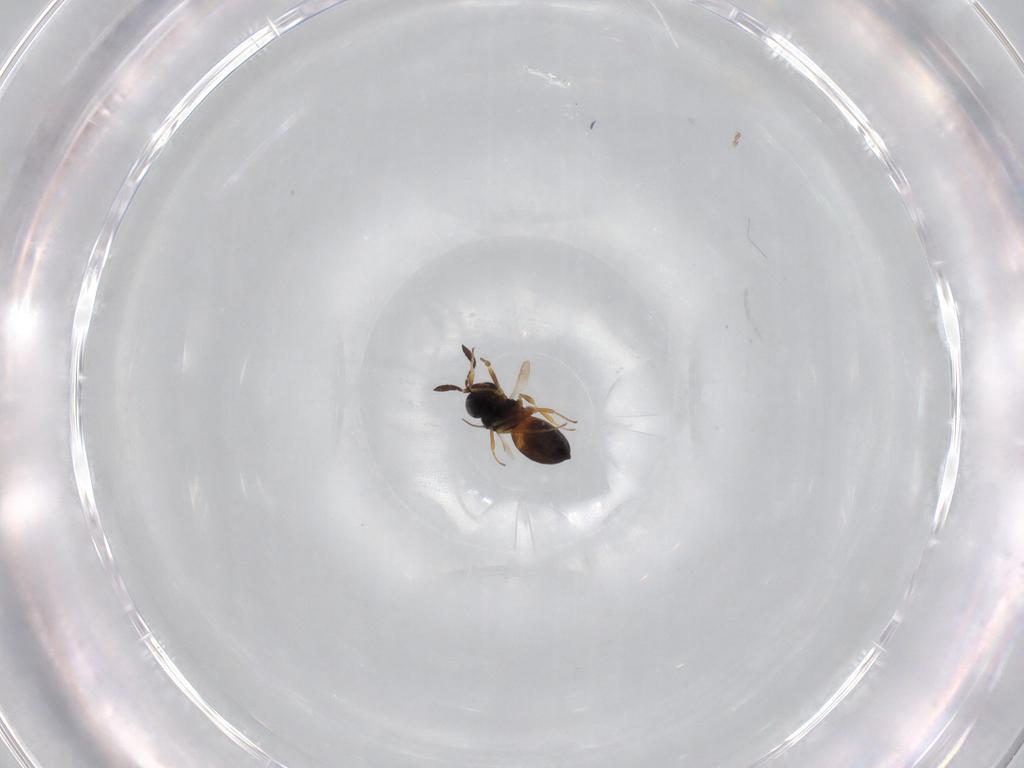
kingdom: Animalia
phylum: Arthropoda
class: Insecta
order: Hymenoptera
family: Scelionidae
